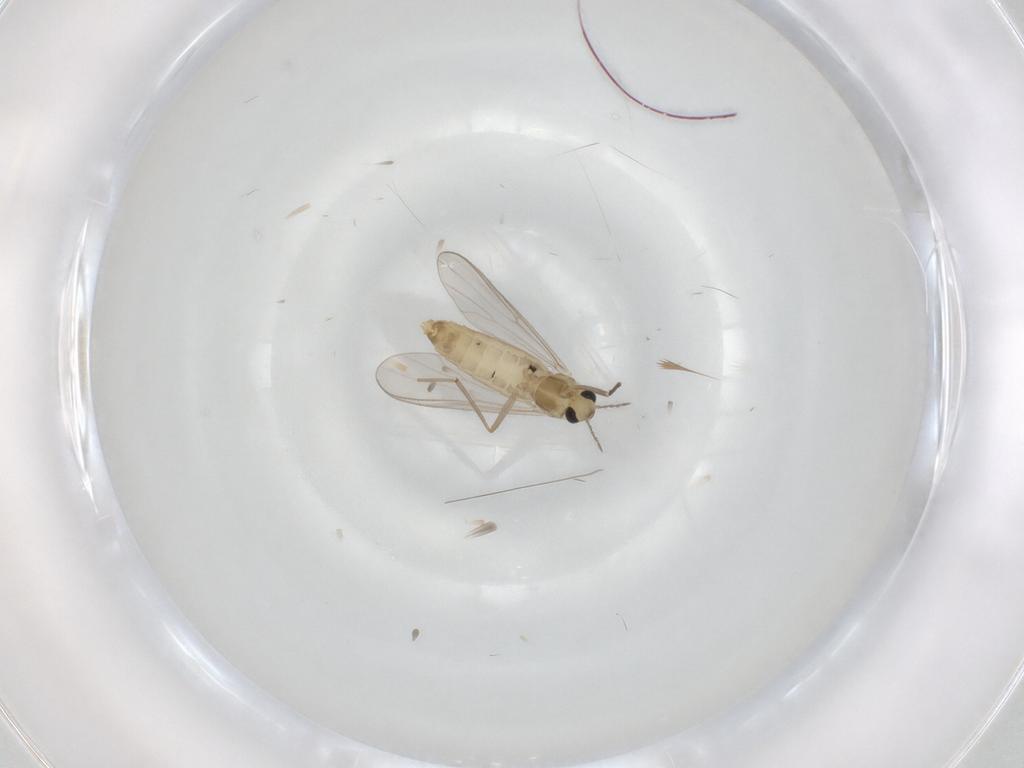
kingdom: Animalia
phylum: Arthropoda
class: Insecta
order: Diptera
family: Chironomidae
